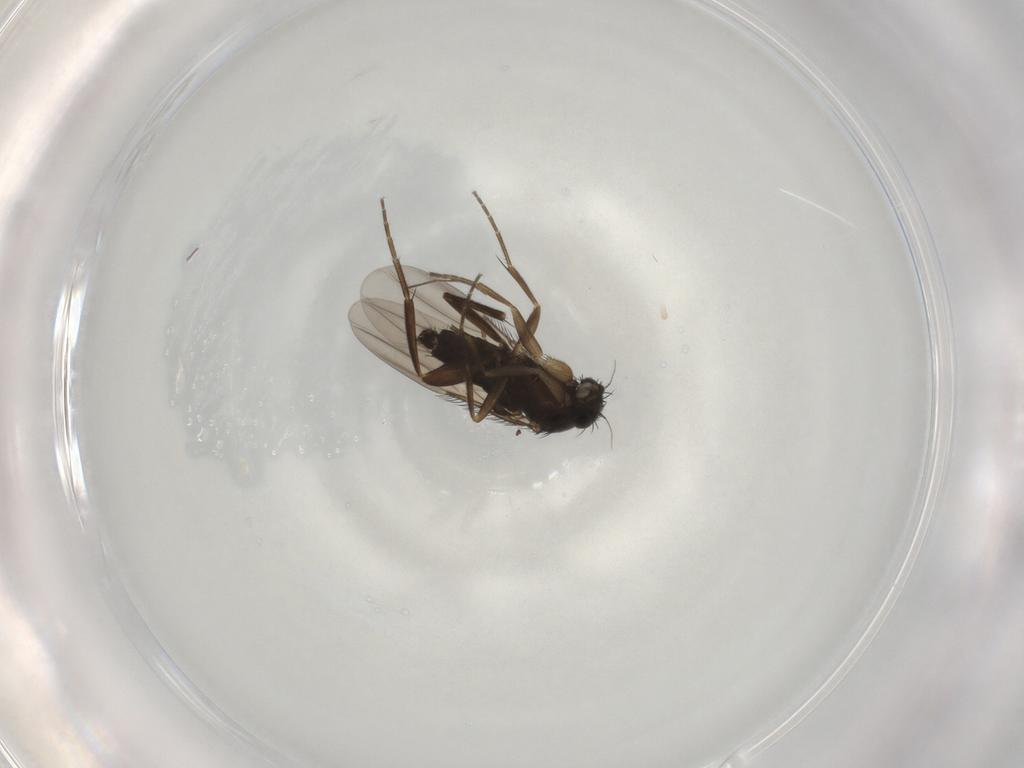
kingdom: Animalia
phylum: Arthropoda
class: Insecta
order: Diptera
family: Phoridae
